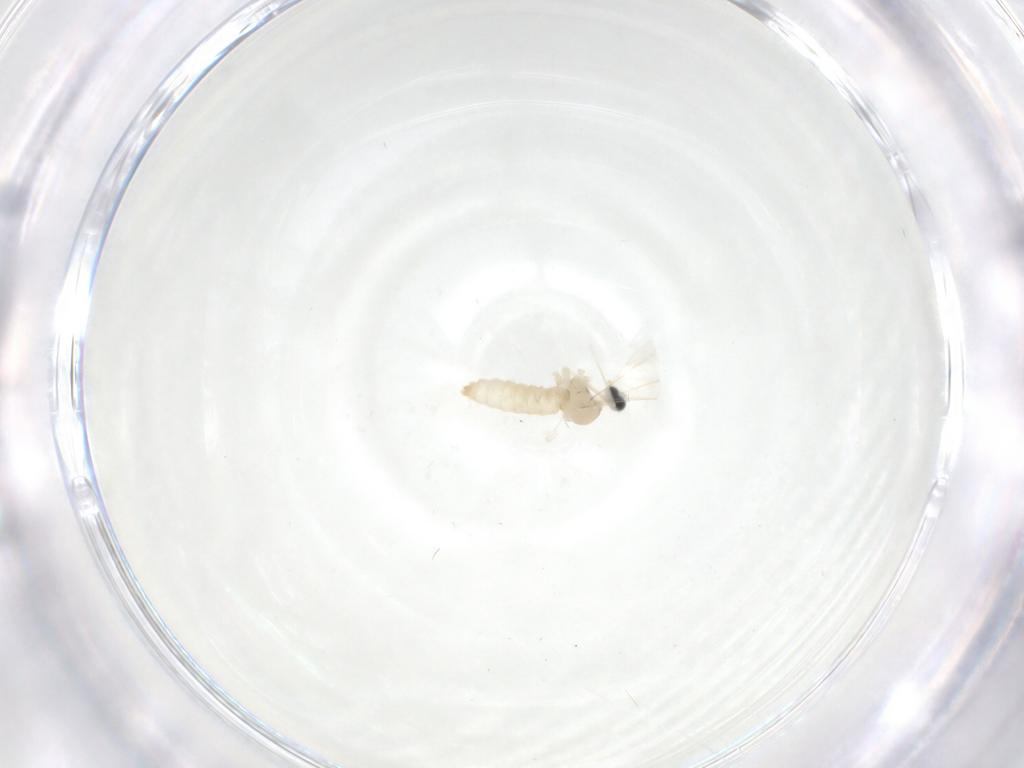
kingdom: Animalia
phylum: Arthropoda
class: Insecta
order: Diptera
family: Cecidomyiidae
